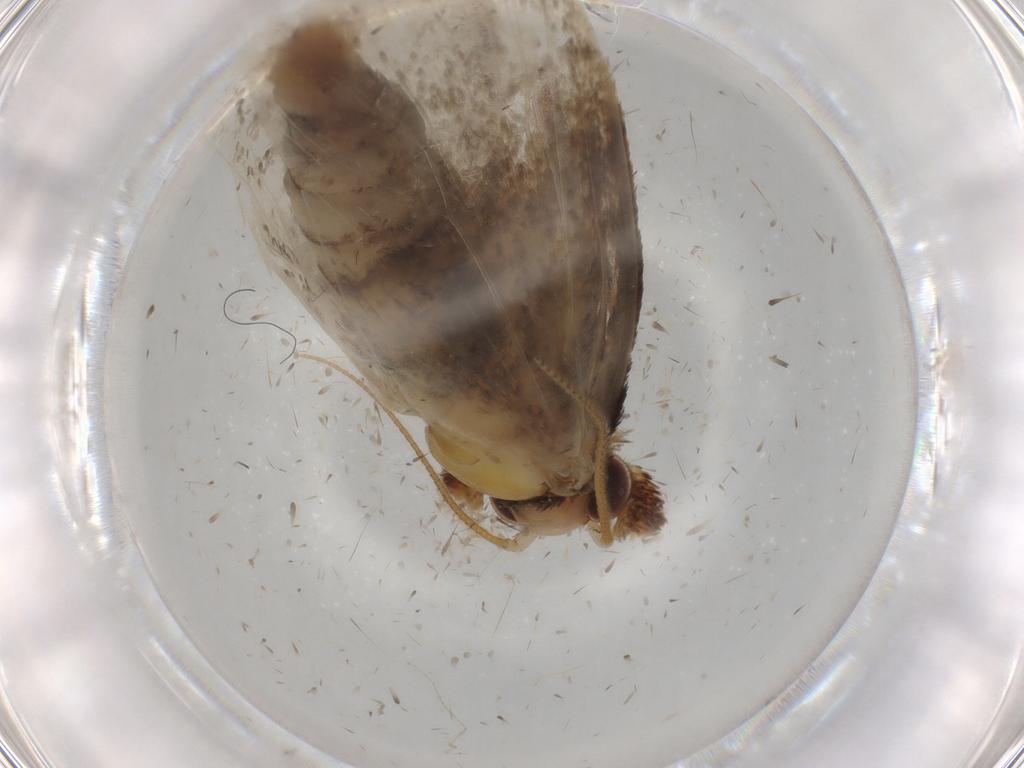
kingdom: Animalia
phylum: Arthropoda
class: Insecta
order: Lepidoptera
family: Tineidae
